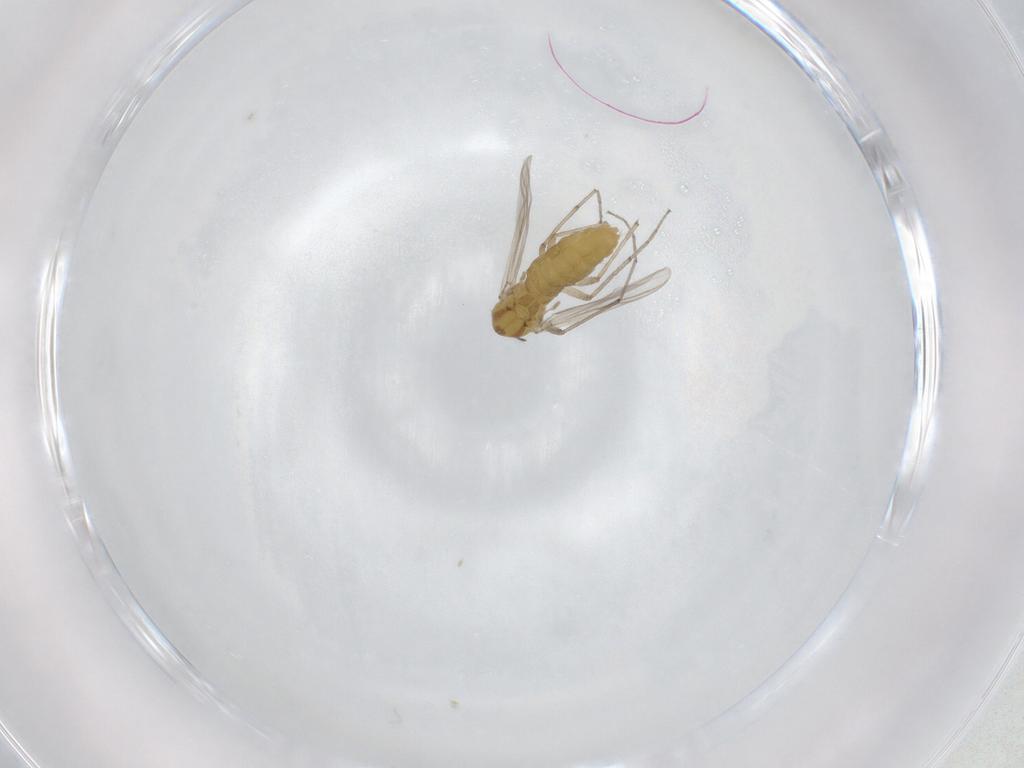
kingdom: Animalia
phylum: Arthropoda
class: Insecta
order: Diptera
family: Chironomidae
